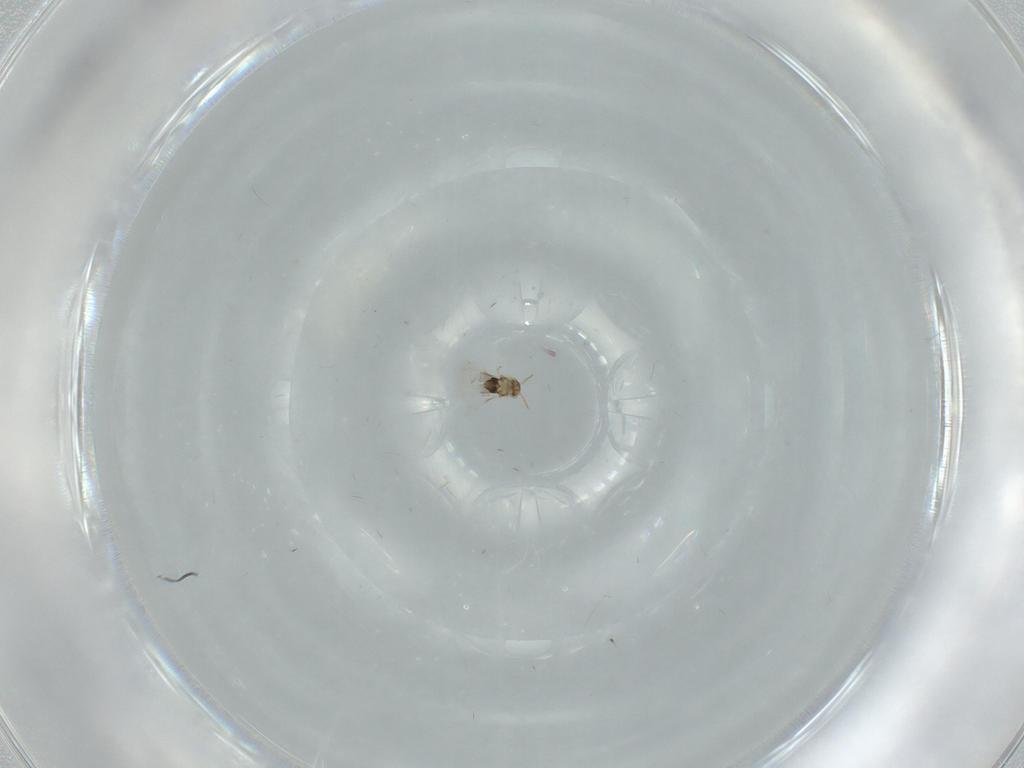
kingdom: Animalia
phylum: Arthropoda
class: Insecta
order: Hymenoptera
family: Aphelinidae
